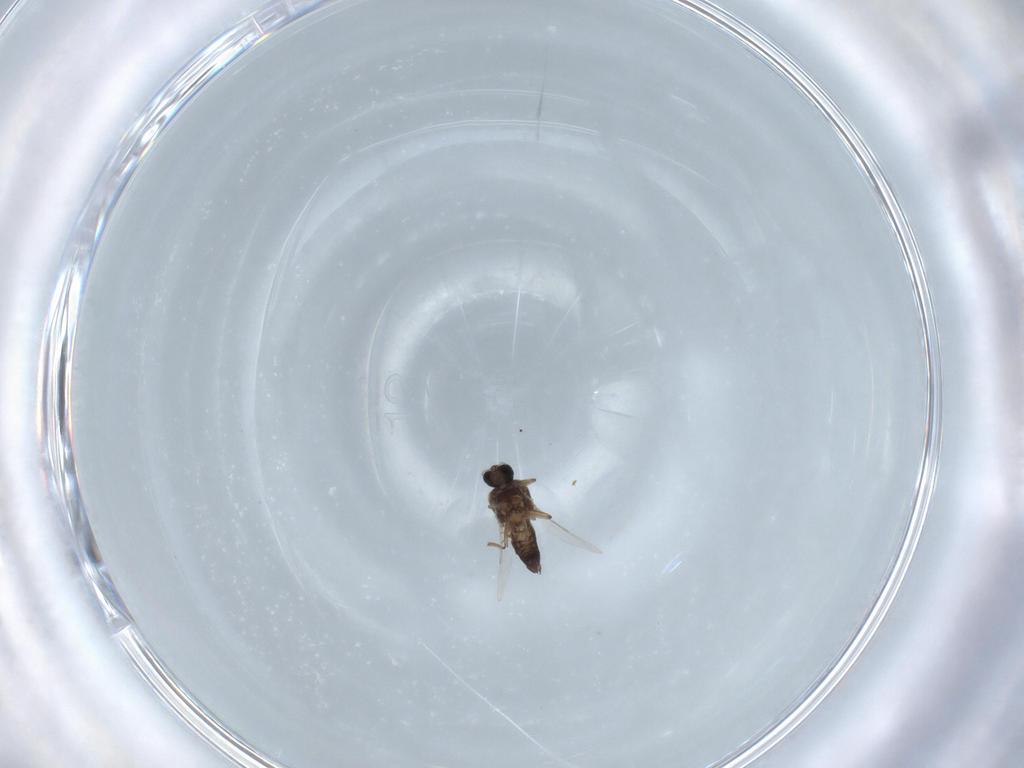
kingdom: Animalia
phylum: Arthropoda
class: Insecta
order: Diptera
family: Ceratopogonidae
